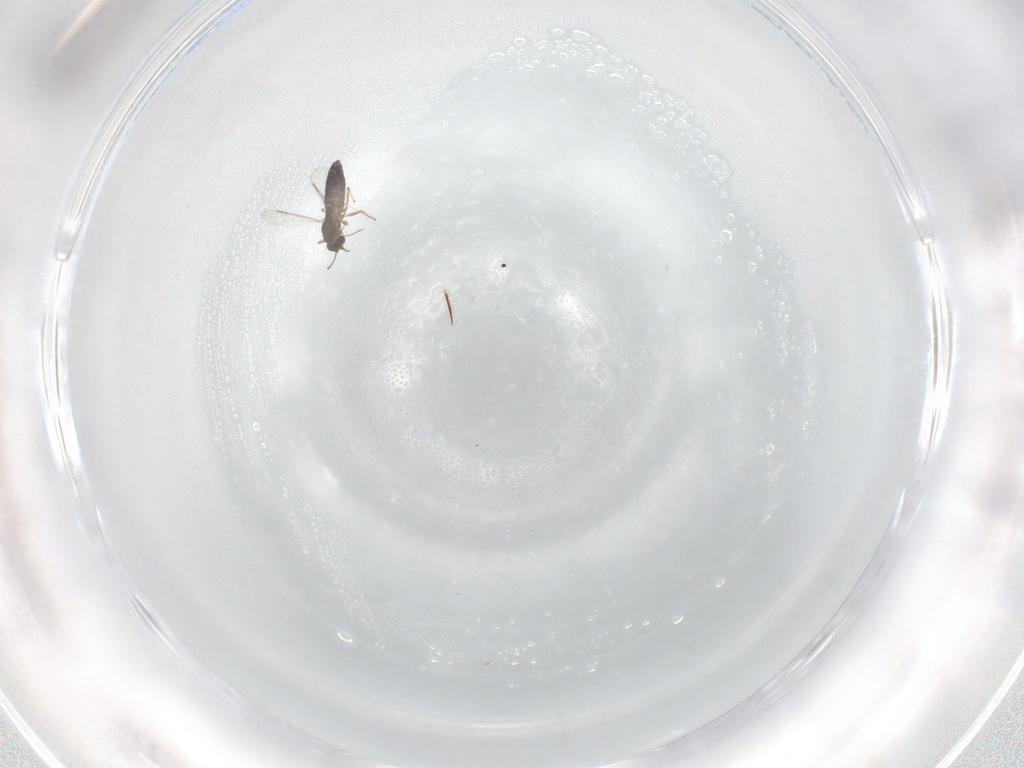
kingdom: Animalia
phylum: Arthropoda
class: Insecta
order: Diptera
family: Chironomidae
